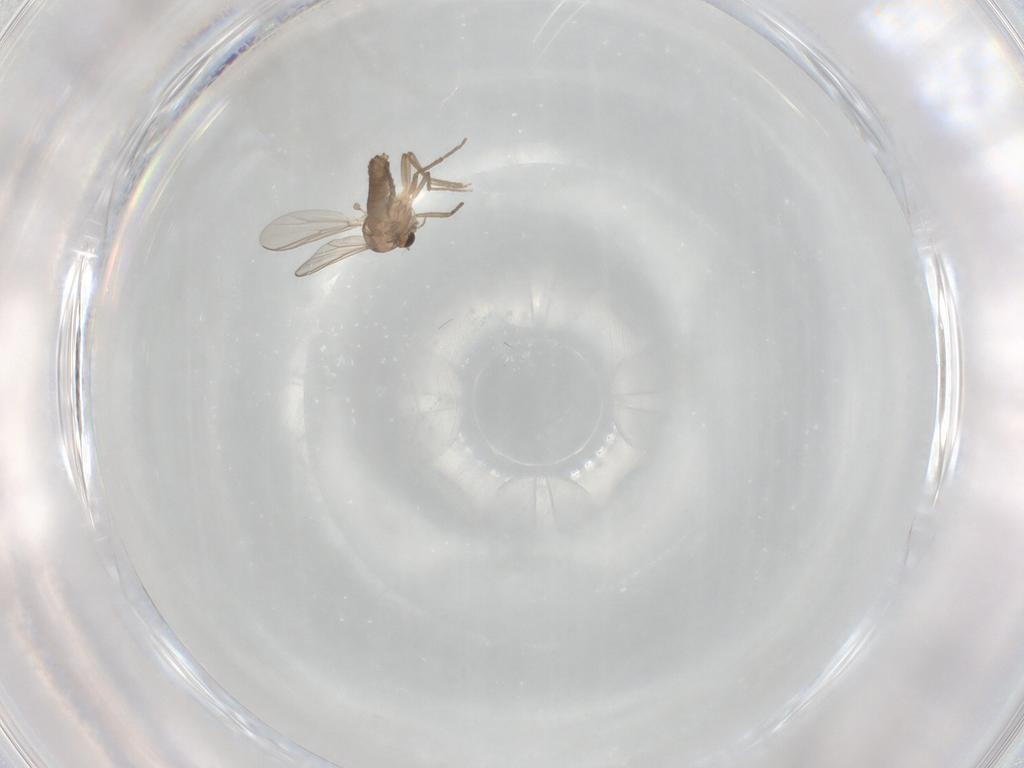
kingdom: Animalia
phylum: Arthropoda
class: Insecta
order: Diptera
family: Chironomidae
